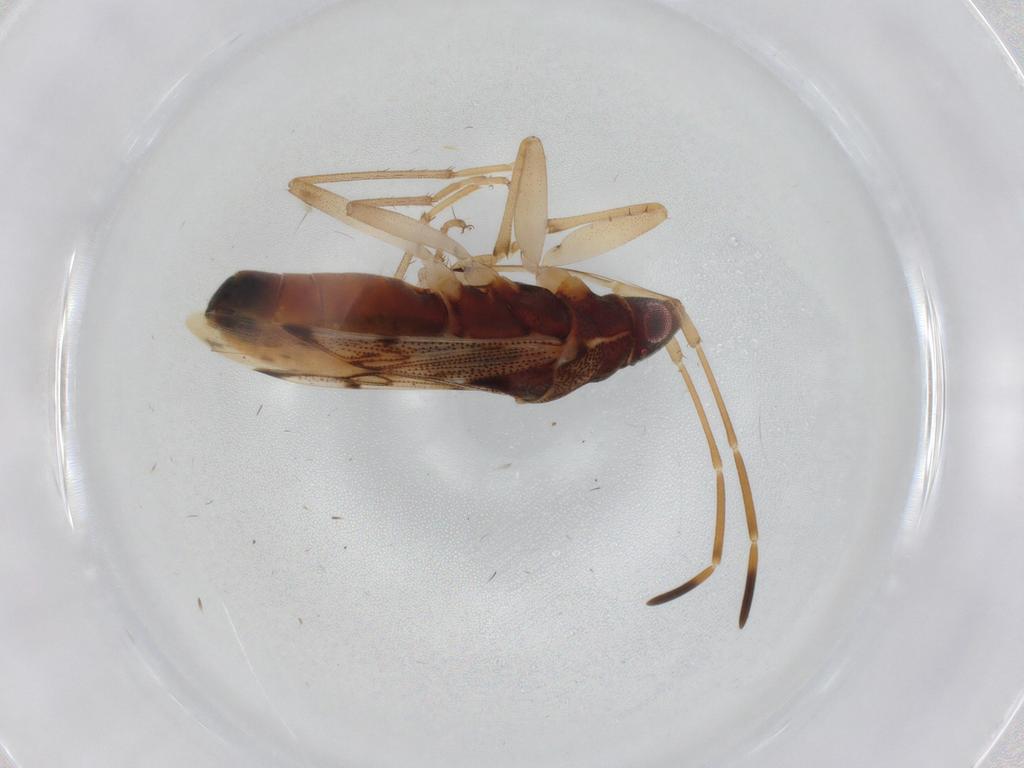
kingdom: Animalia
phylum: Arthropoda
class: Insecta
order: Hemiptera
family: Rhyparochromidae
